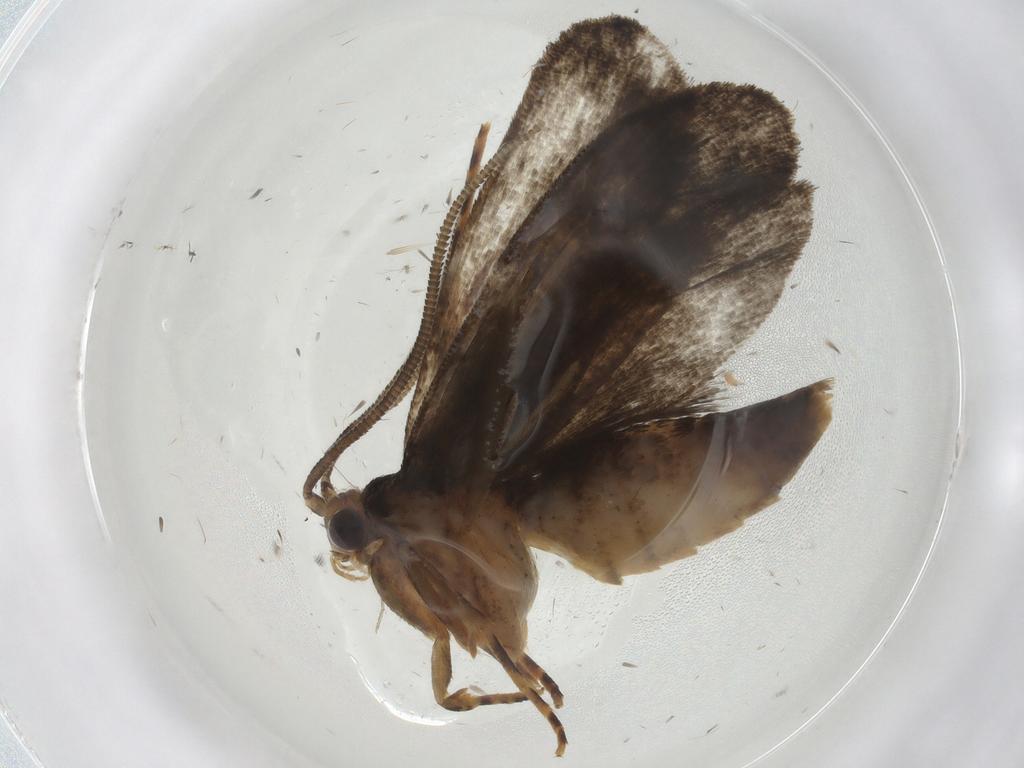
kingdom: Animalia
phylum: Arthropoda
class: Insecta
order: Lepidoptera
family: Tineidae
